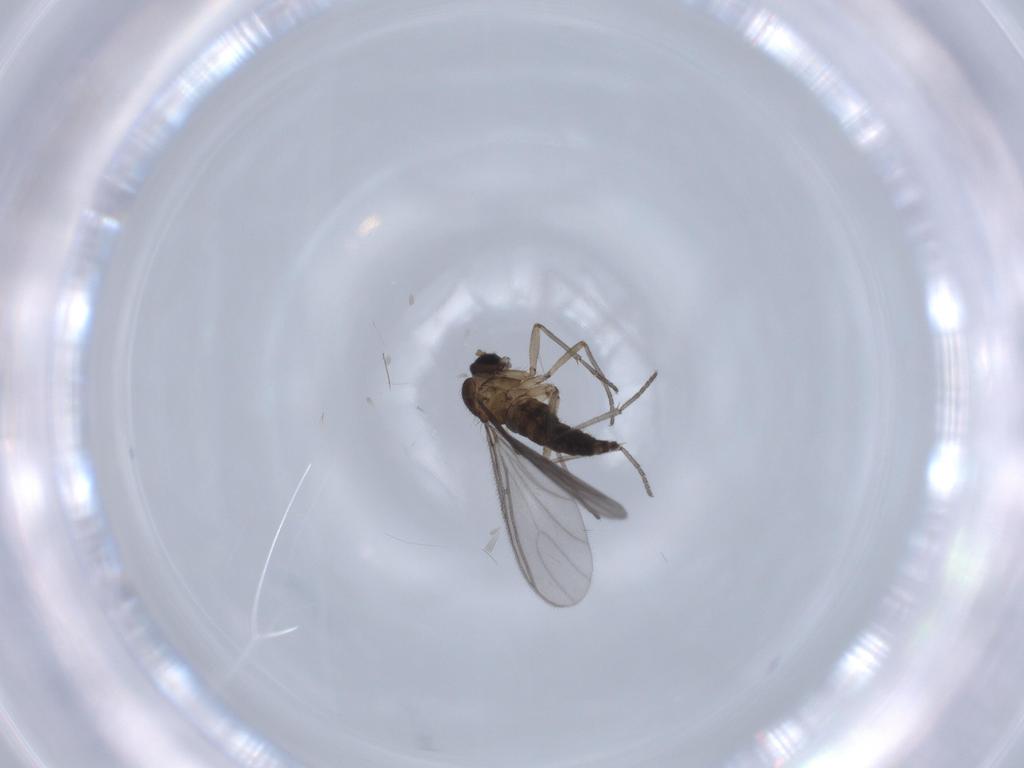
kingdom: Animalia
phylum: Arthropoda
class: Insecta
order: Diptera
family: Sciaridae
